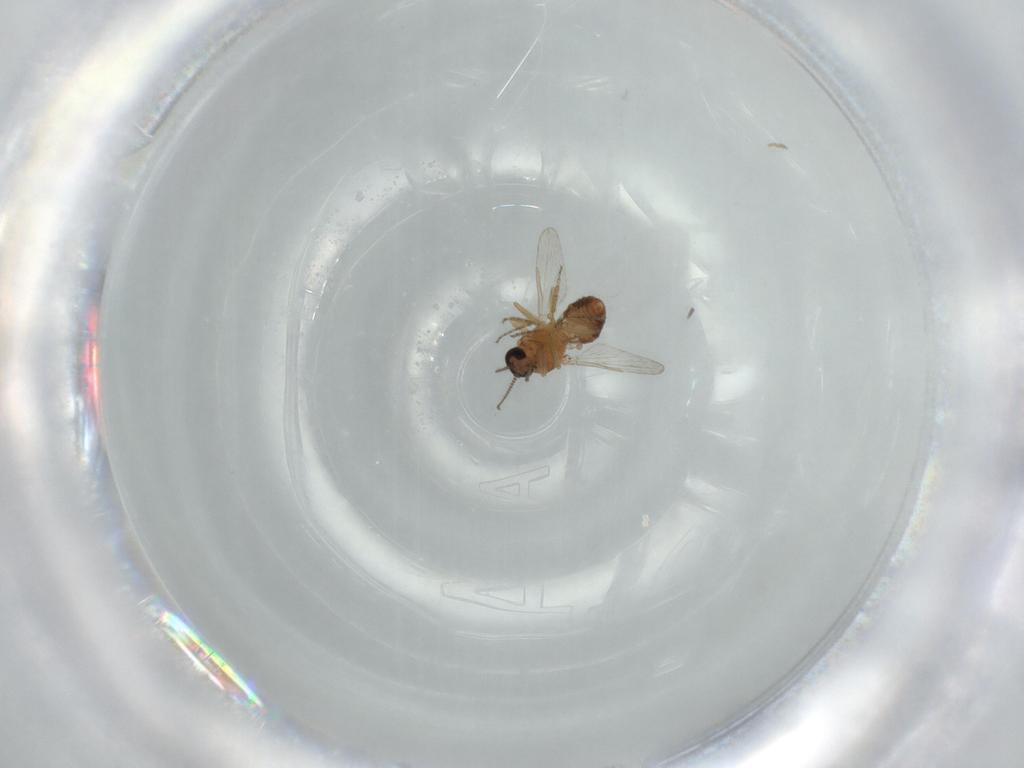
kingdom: Animalia
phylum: Arthropoda
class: Insecta
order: Diptera
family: Ceratopogonidae
